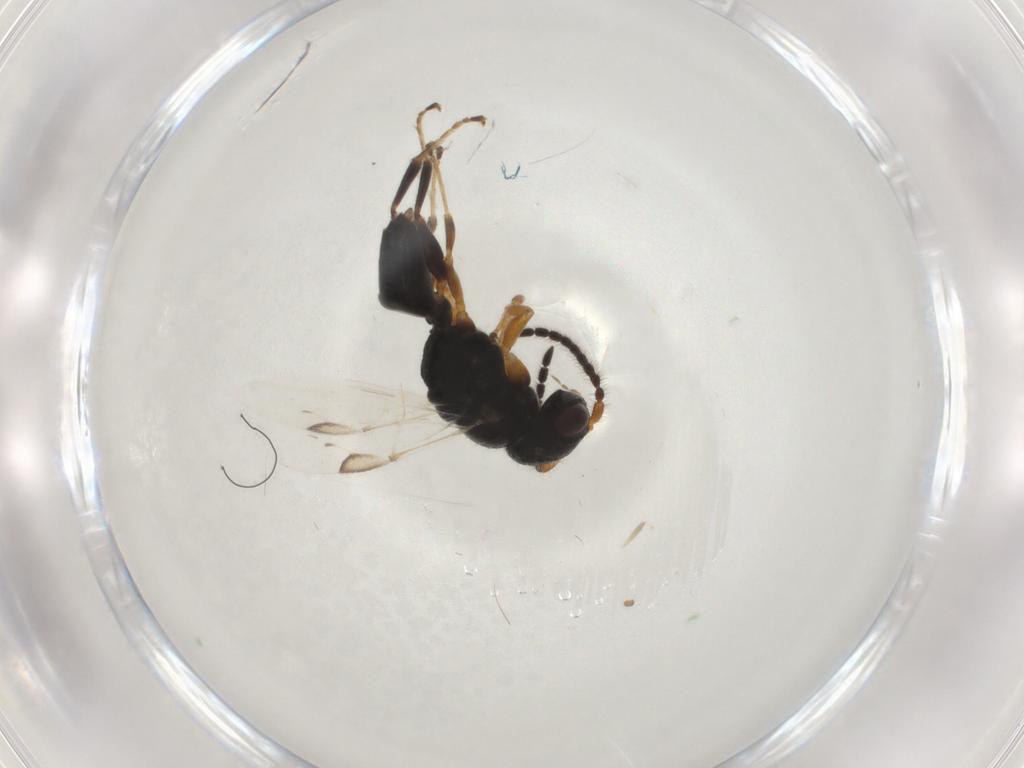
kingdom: Animalia
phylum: Arthropoda
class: Insecta
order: Hymenoptera
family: Dryinidae
